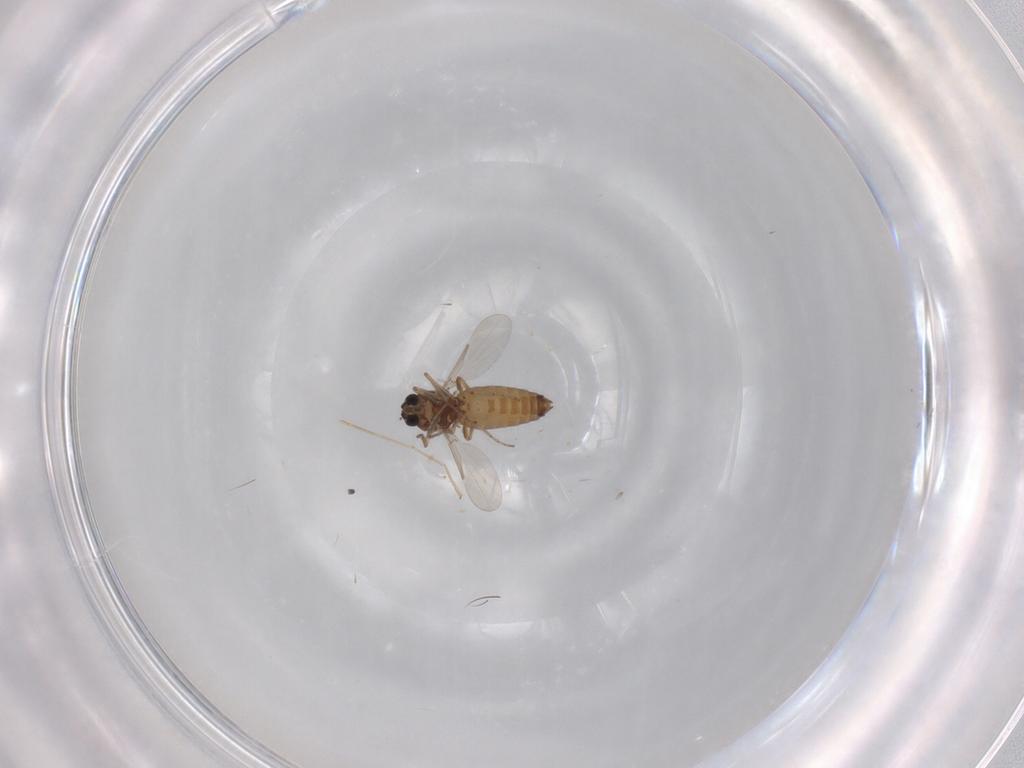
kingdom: Animalia
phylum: Arthropoda
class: Insecta
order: Diptera
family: Ceratopogonidae
